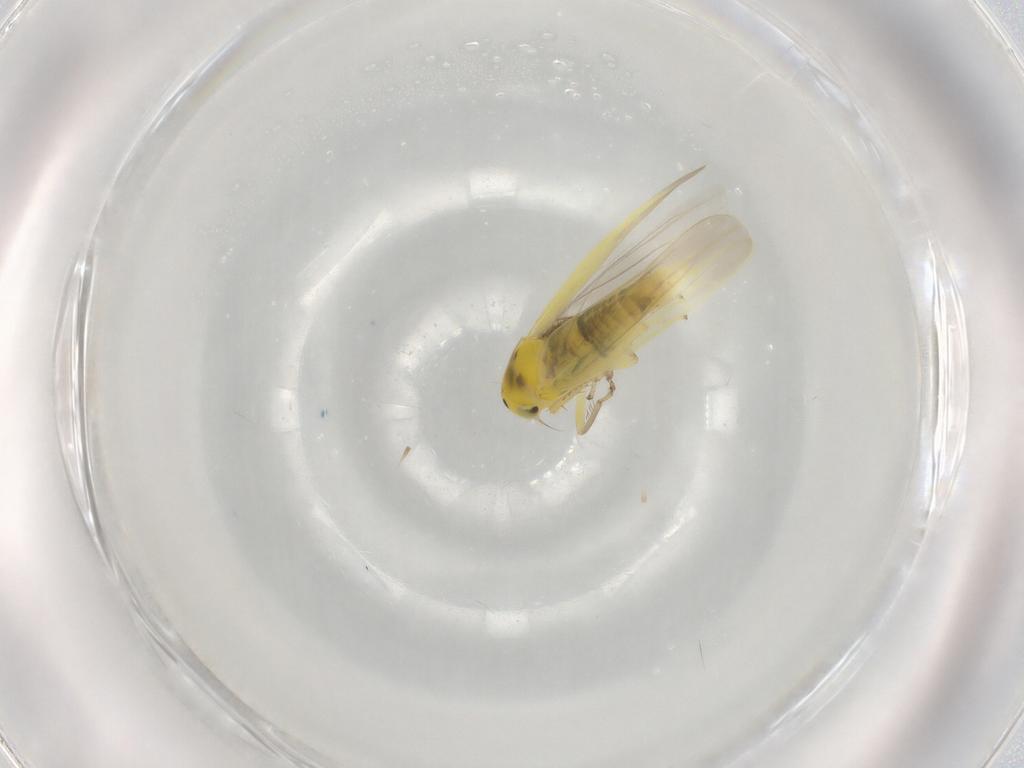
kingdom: Animalia
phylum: Arthropoda
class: Insecta
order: Hemiptera
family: Cicadellidae
